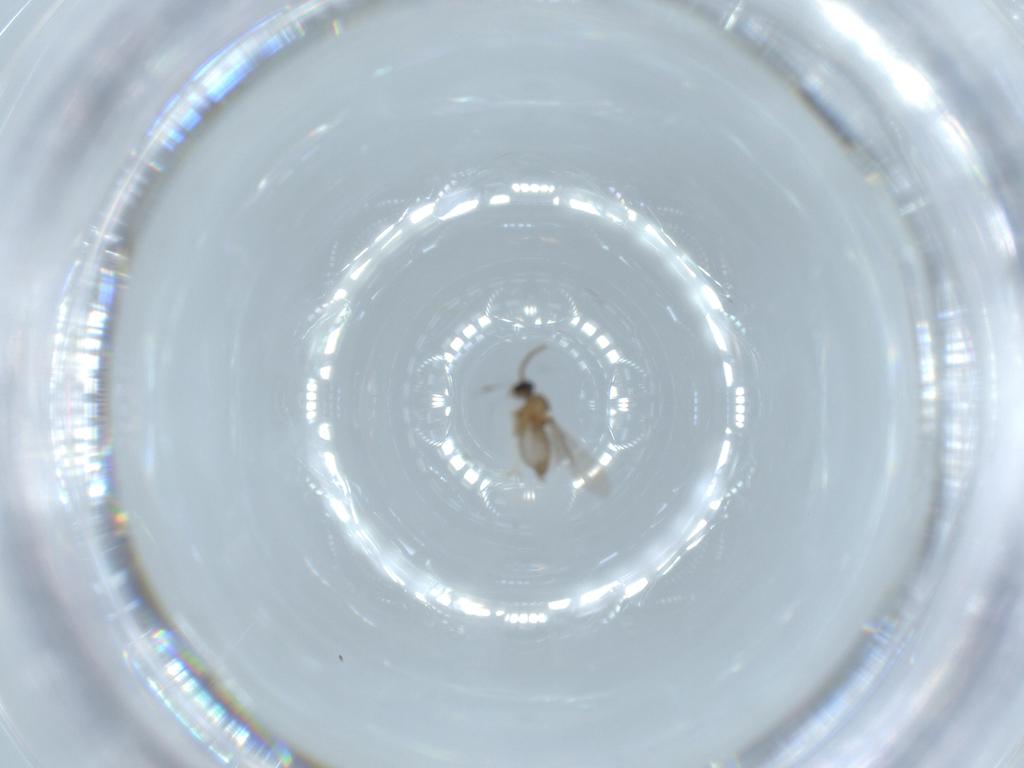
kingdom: Animalia
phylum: Arthropoda
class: Insecta
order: Diptera
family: Cecidomyiidae
